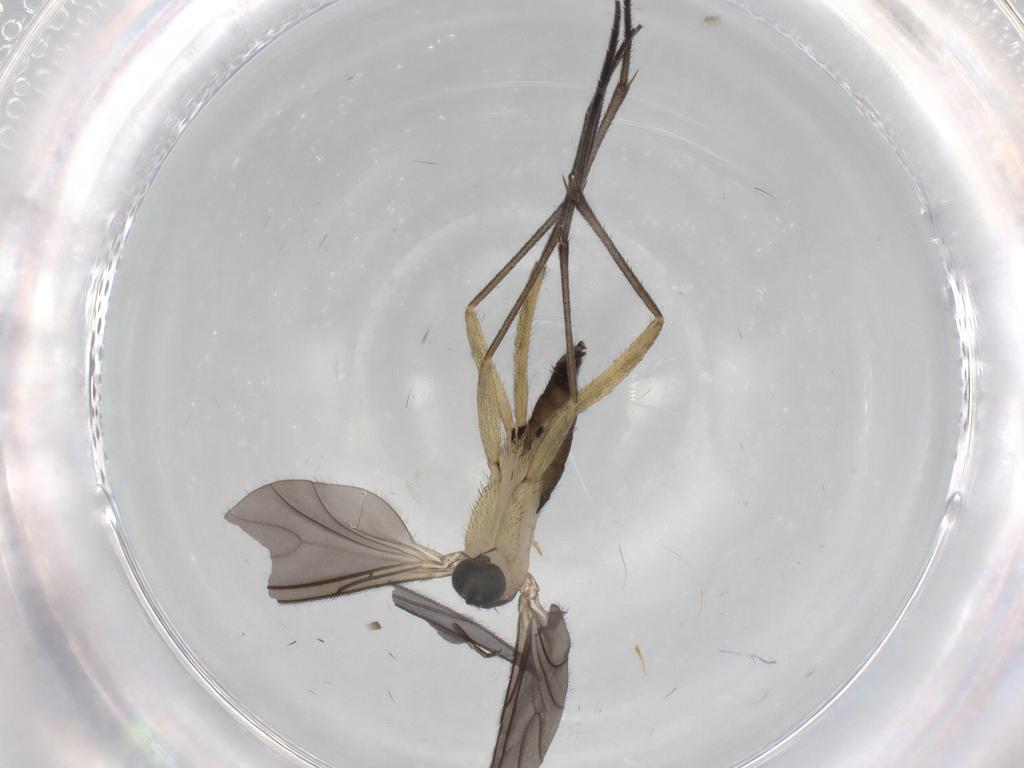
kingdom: Animalia
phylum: Arthropoda
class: Insecta
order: Diptera
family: Sciaridae
